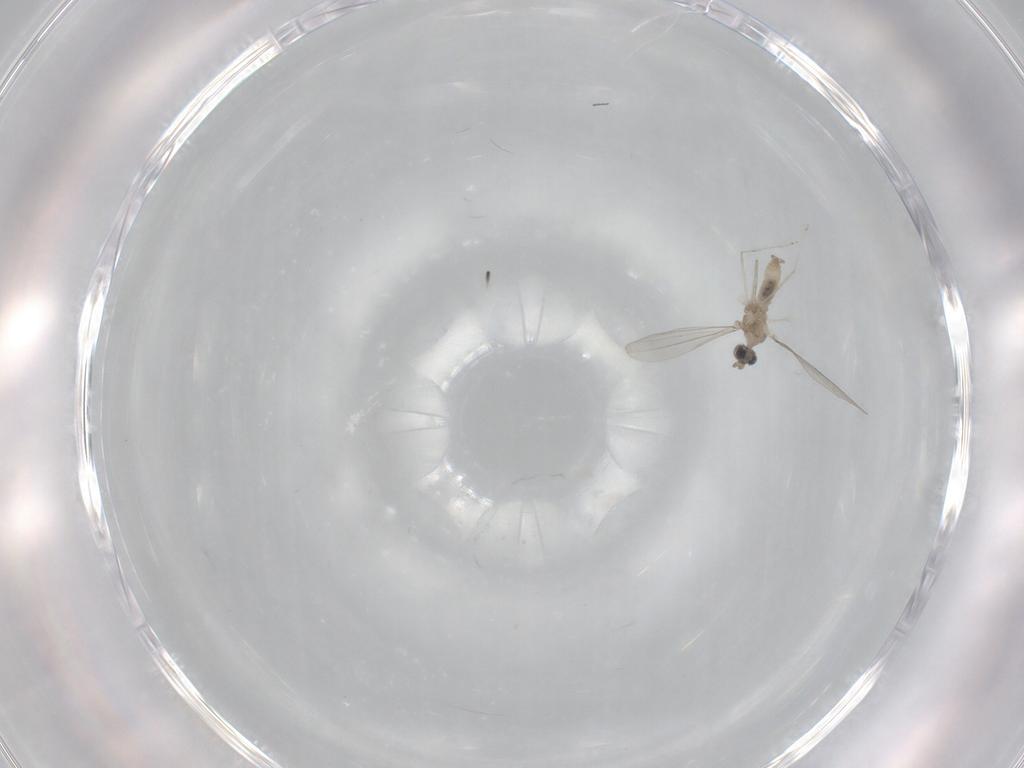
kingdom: Animalia
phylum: Arthropoda
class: Insecta
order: Diptera
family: Cecidomyiidae
